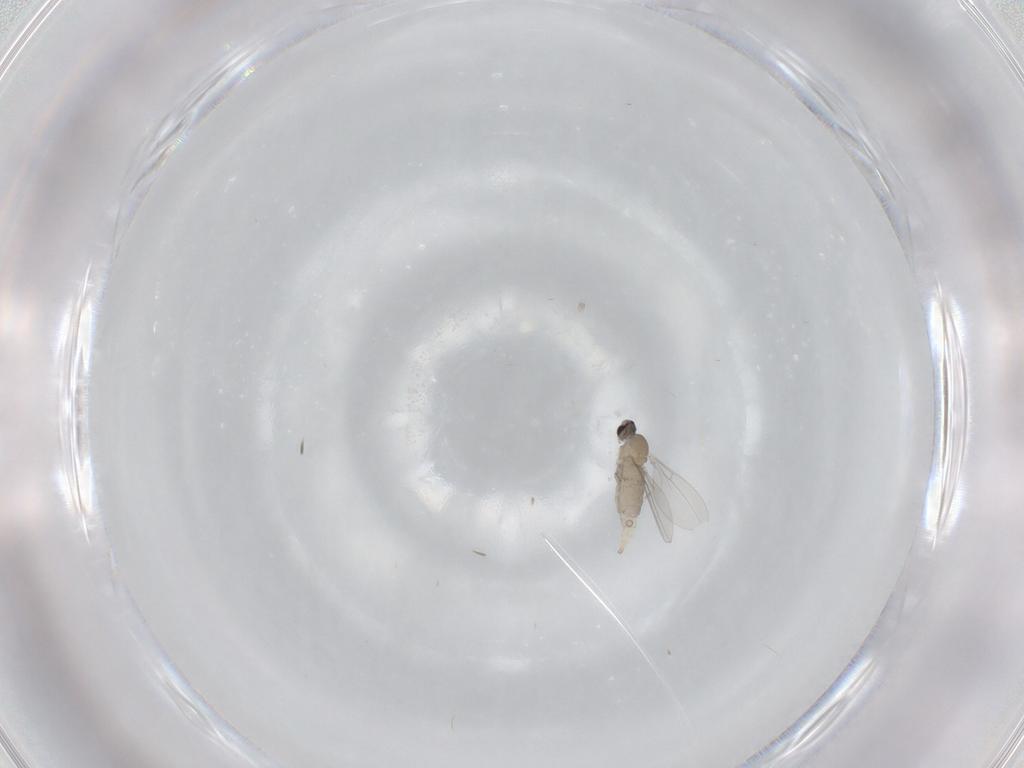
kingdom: Animalia
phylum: Arthropoda
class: Insecta
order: Diptera
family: Cecidomyiidae
